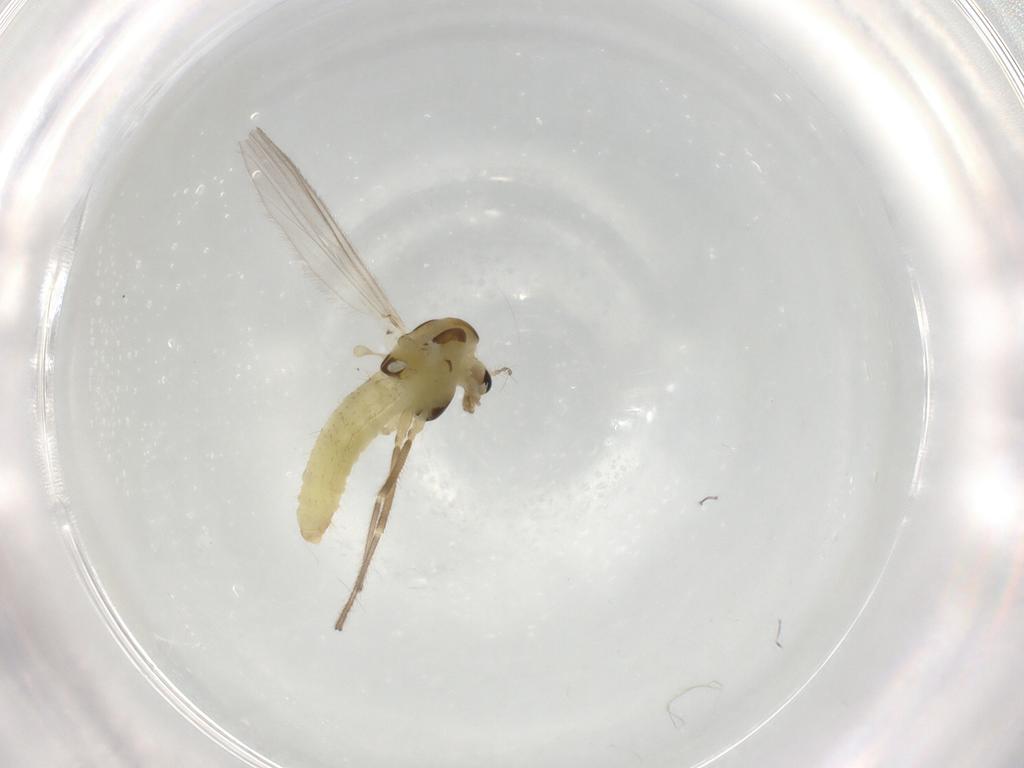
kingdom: Animalia
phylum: Arthropoda
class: Insecta
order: Diptera
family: Chironomidae
